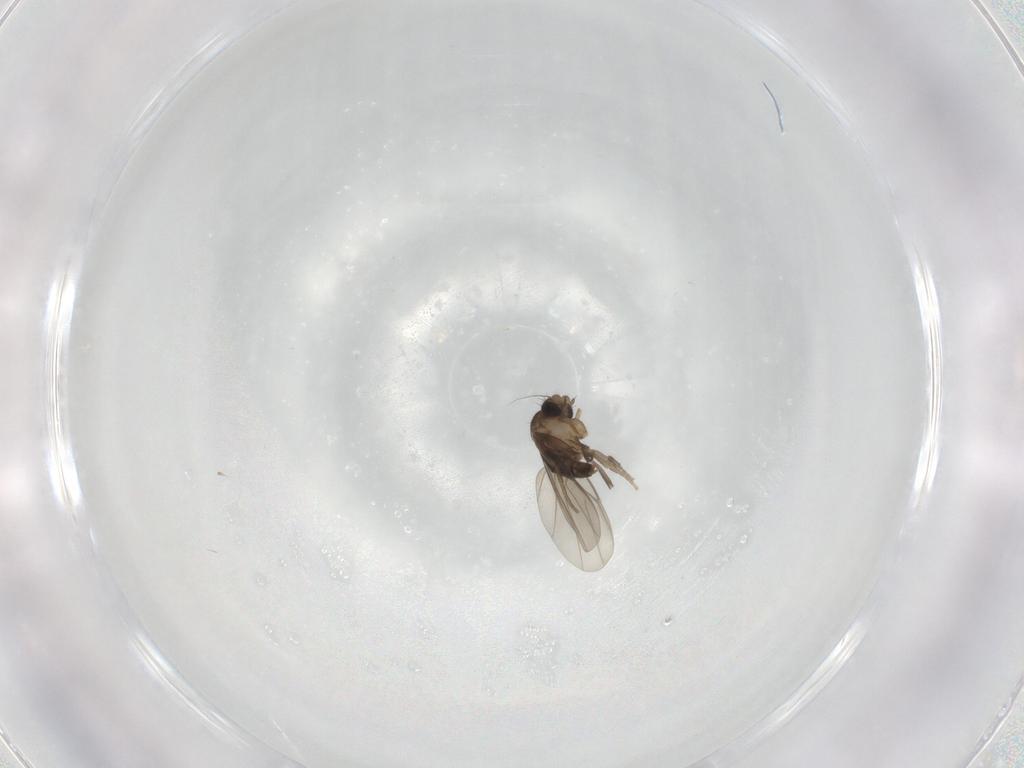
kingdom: Animalia
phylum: Arthropoda
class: Insecta
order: Diptera
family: Phoridae
